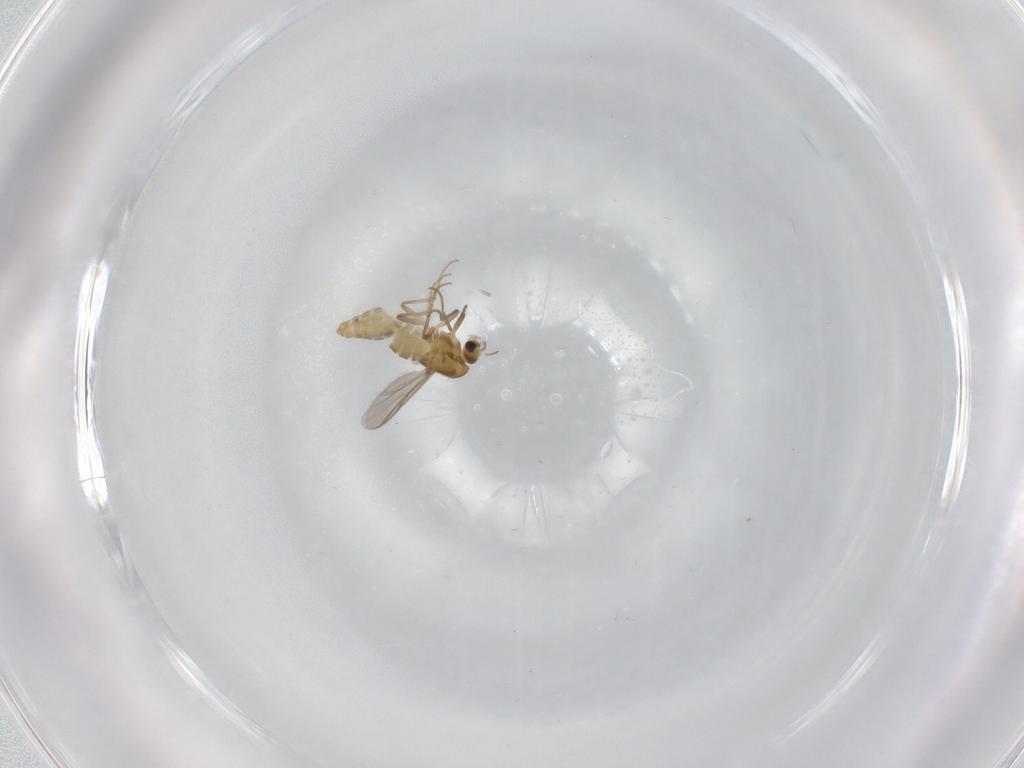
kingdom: Animalia
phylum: Arthropoda
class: Insecta
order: Diptera
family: Chironomidae
